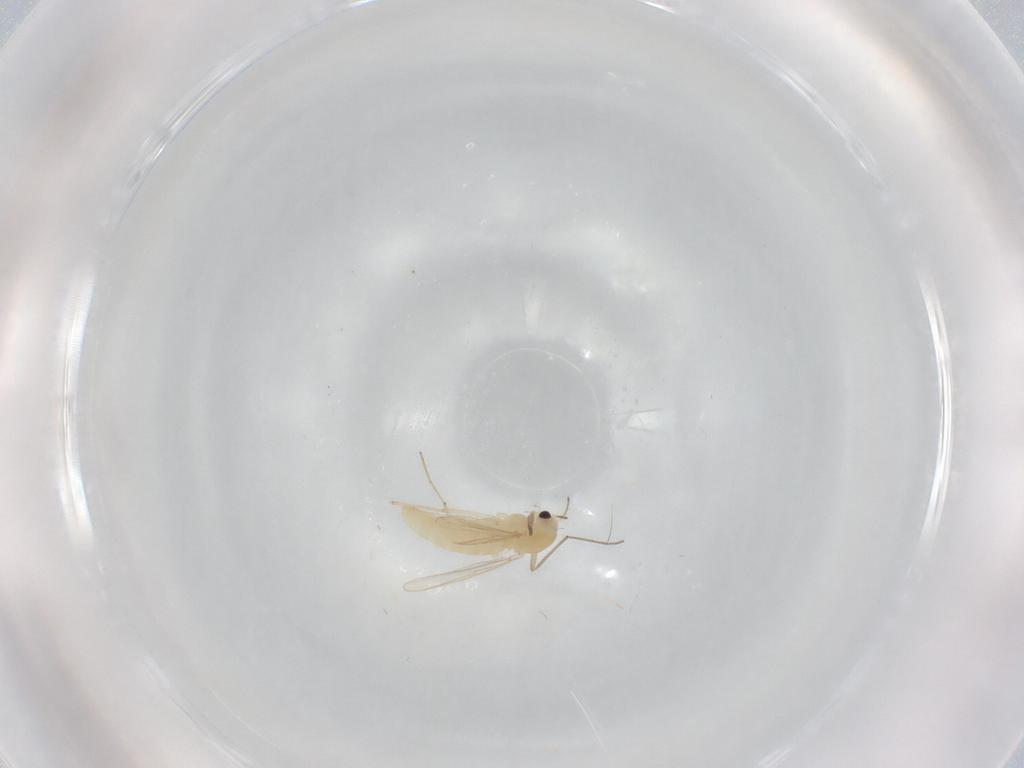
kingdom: Animalia
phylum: Arthropoda
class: Insecta
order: Diptera
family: Chironomidae
